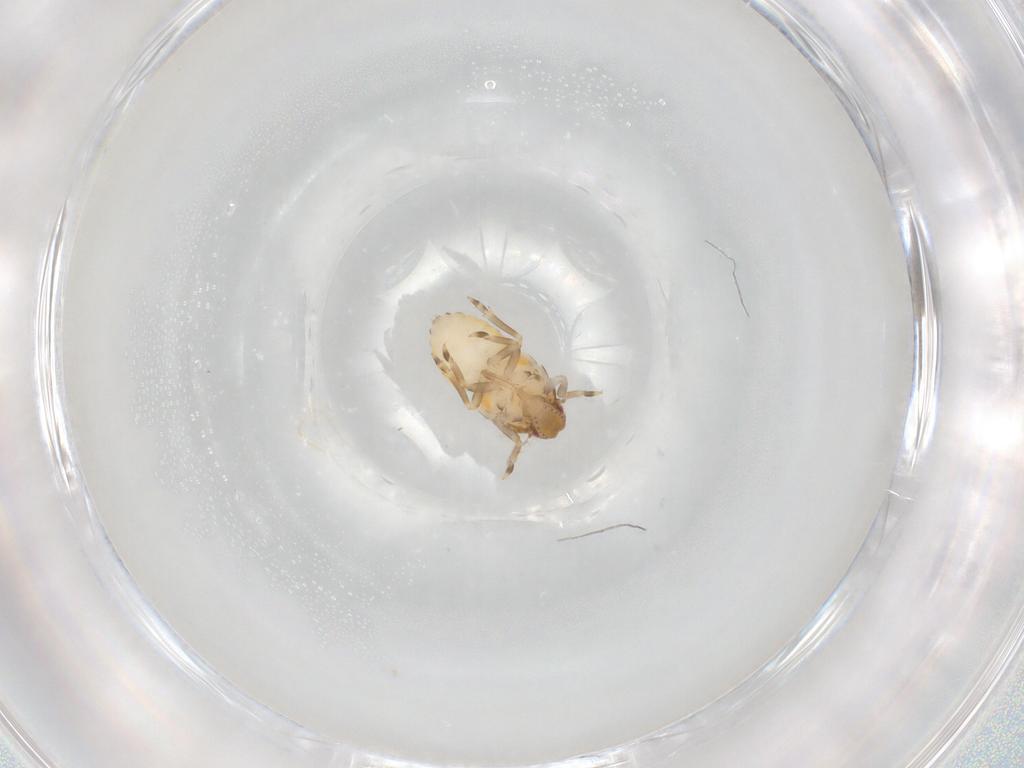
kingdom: Animalia
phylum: Arthropoda
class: Insecta
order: Hemiptera
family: Flatidae
